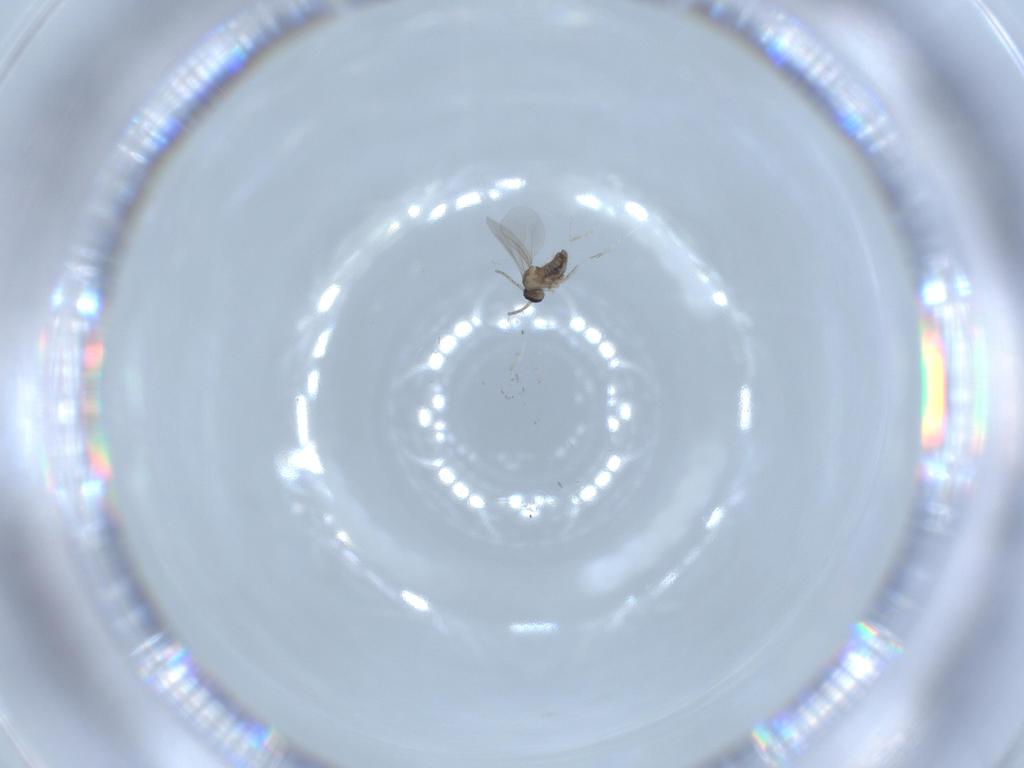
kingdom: Animalia
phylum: Arthropoda
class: Insecta
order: Diptera
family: Cecidomyiidae
